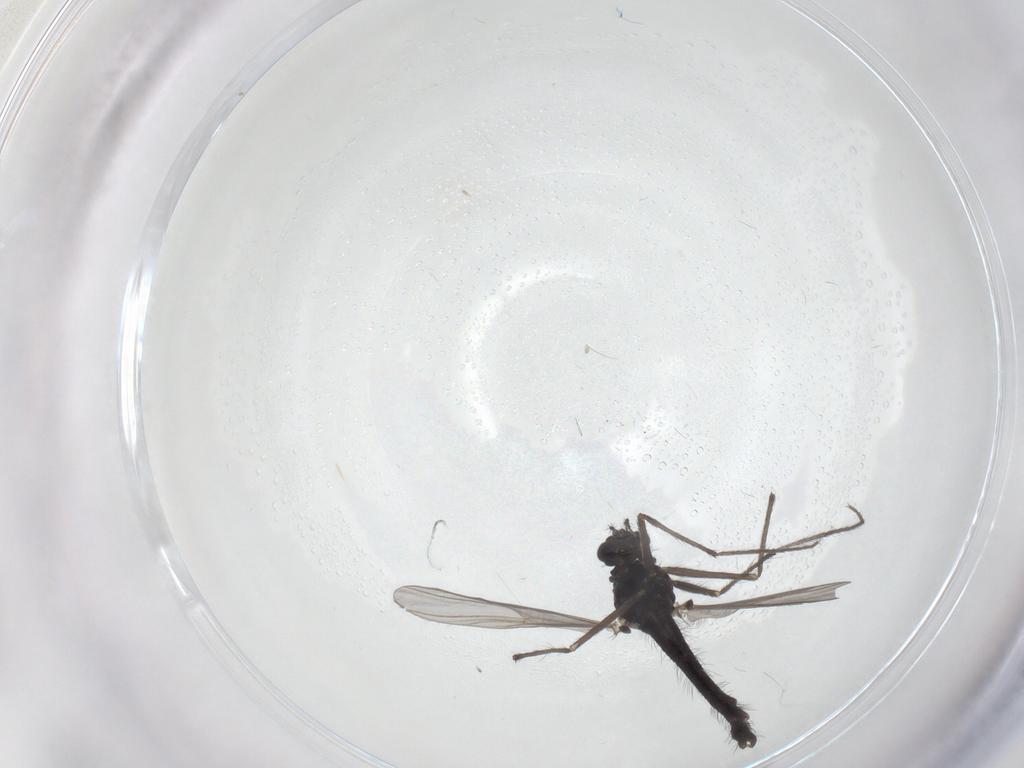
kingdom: Animalia
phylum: Arthropoda
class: Insecta
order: Diptera
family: Chironomidae
